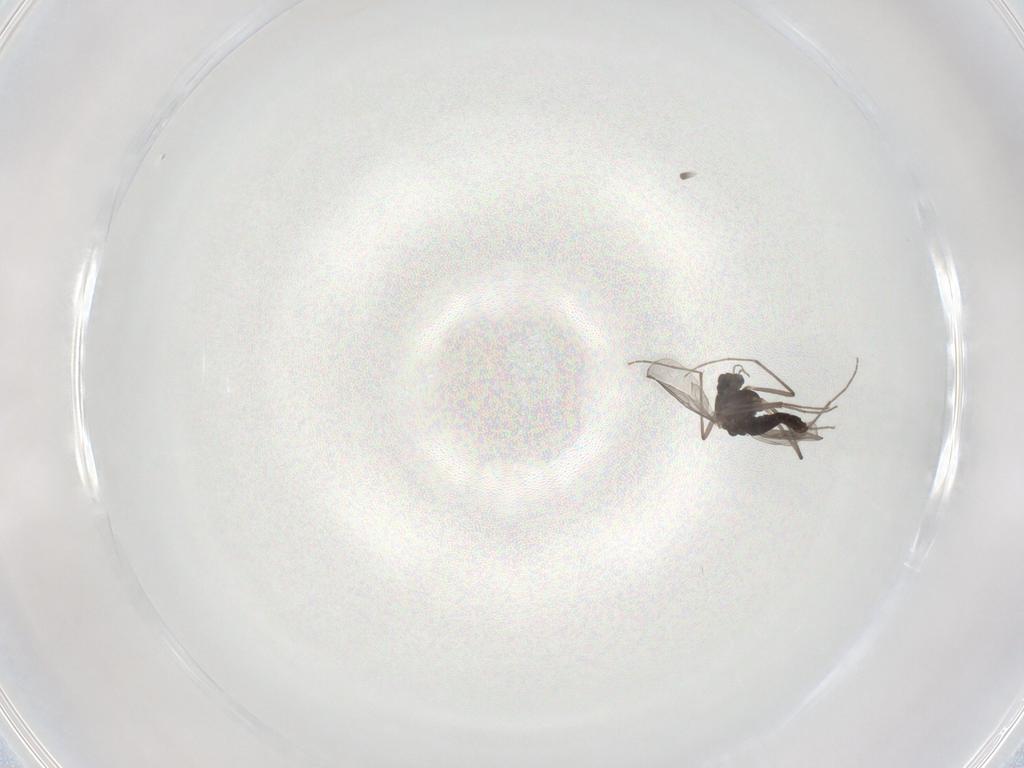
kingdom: Animalia
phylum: Arthropoda
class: Insecta
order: Diptera
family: Chironomidae
